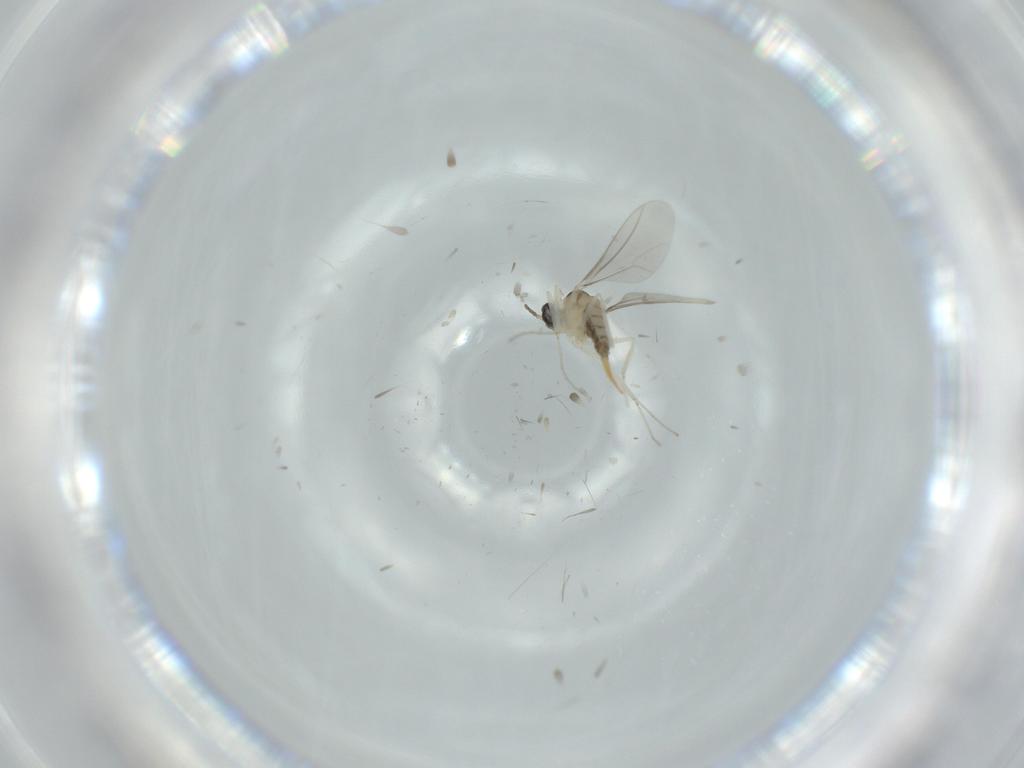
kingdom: Animalia
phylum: Arthropoda
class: Insecta
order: Diptera
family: Cecidomyiidae
